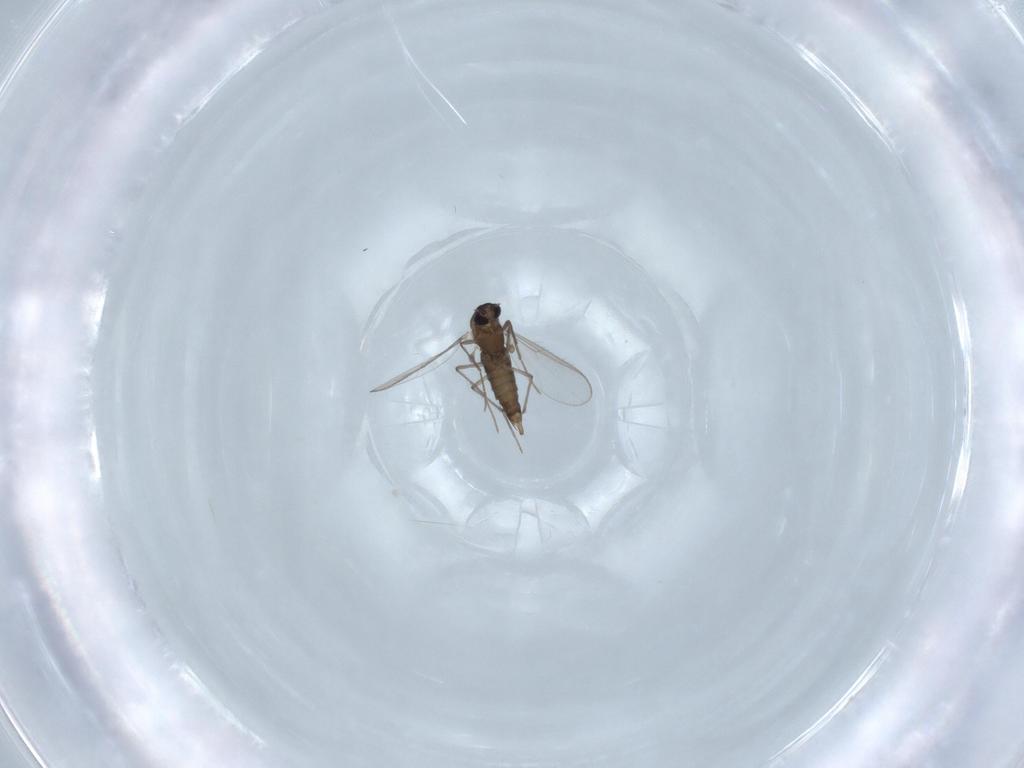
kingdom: Animalia
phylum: Arthropoda
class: Insecta
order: Diptera
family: Chironomidae
